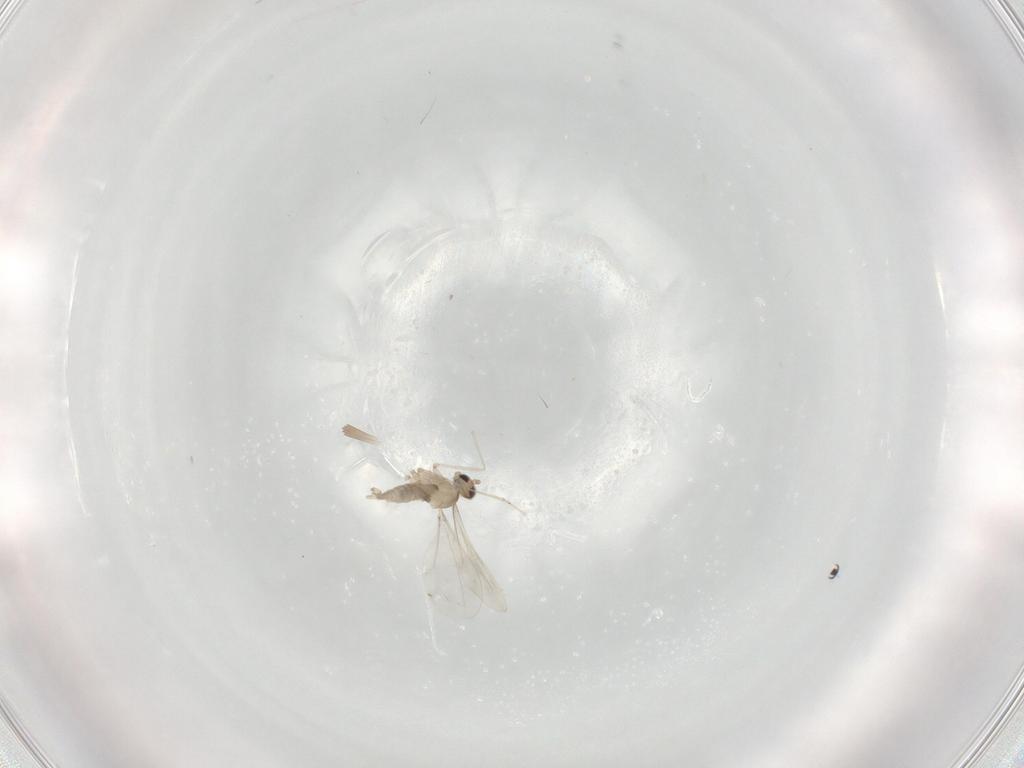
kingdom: Animalia
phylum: Arthropoda
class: Insecta
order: Diptera
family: Cecidomyiidae
